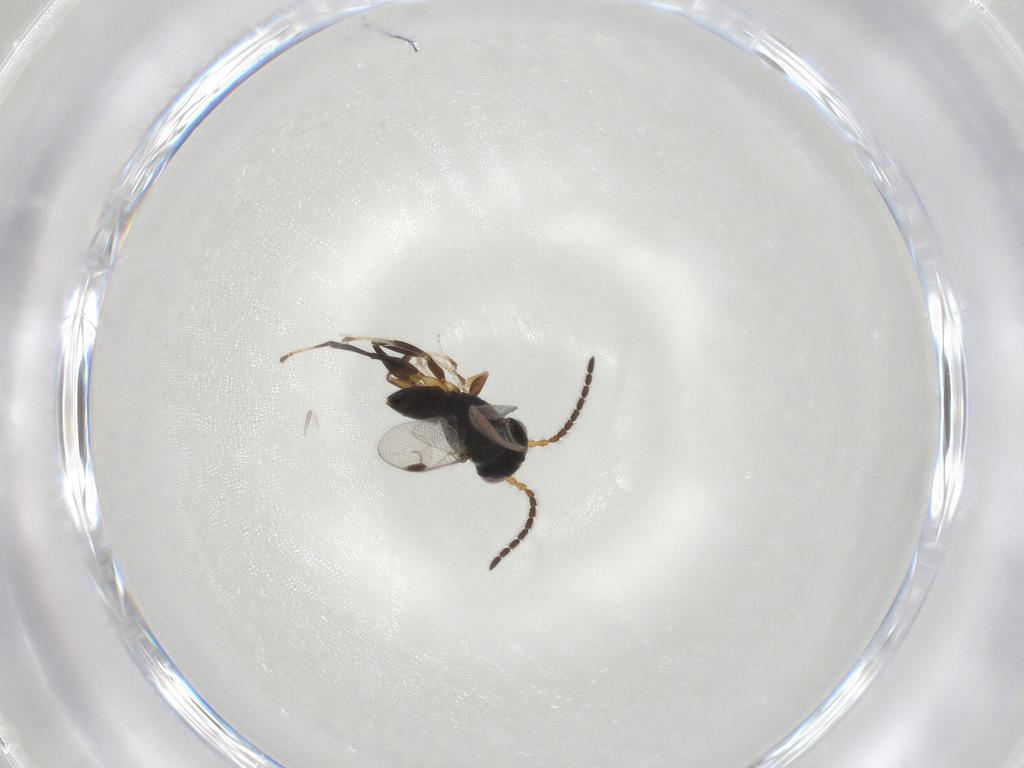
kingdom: Animalia
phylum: Arthropoda
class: Insecta
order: Hymenoptera
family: Dryinidae
